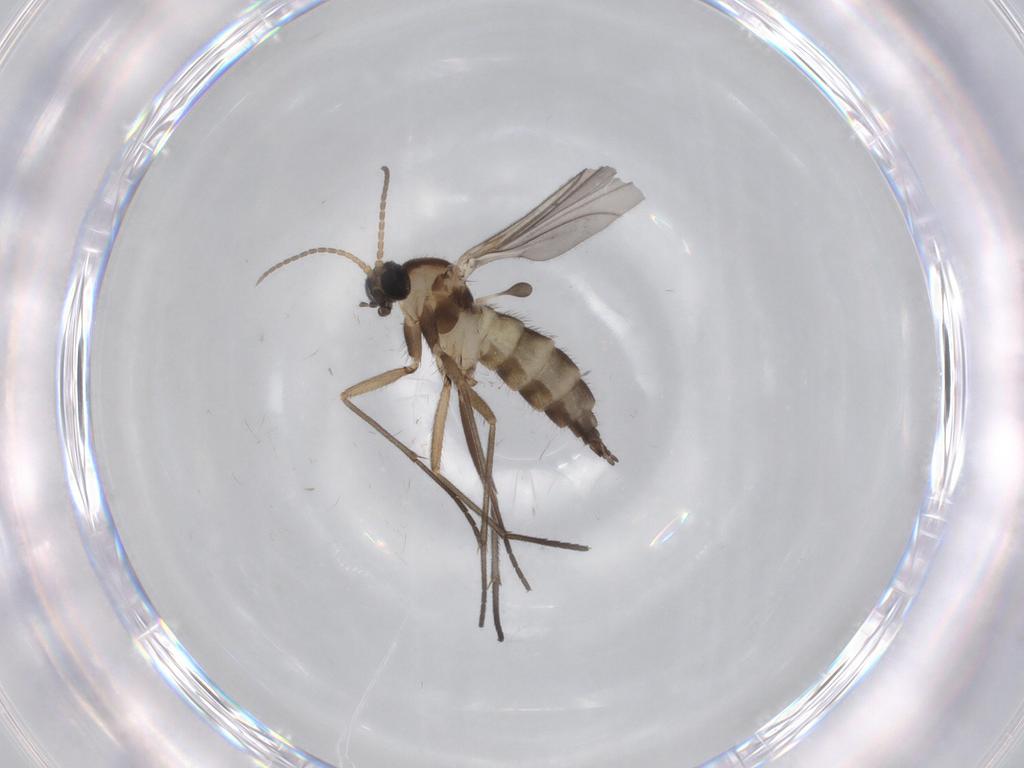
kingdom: Animalia
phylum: Arthropoda
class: Insecta
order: Diptera
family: Sciaridae
